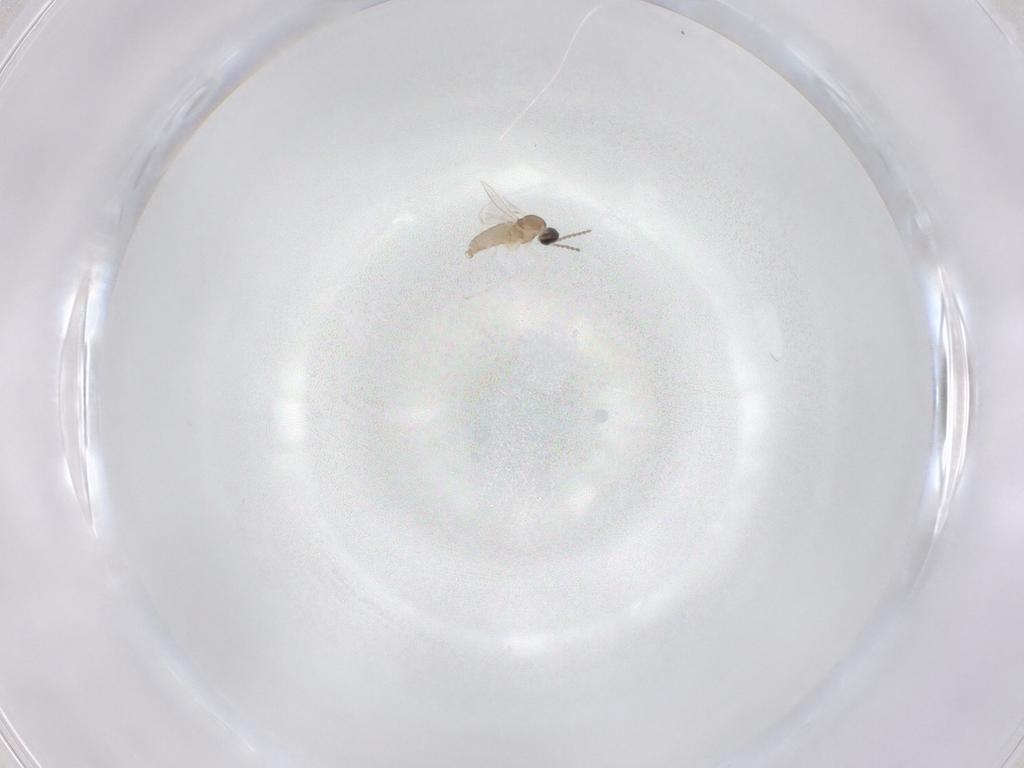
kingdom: Animalia
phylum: Arthropoda
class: Insecta
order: Diptera
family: Cecidomyiidae
